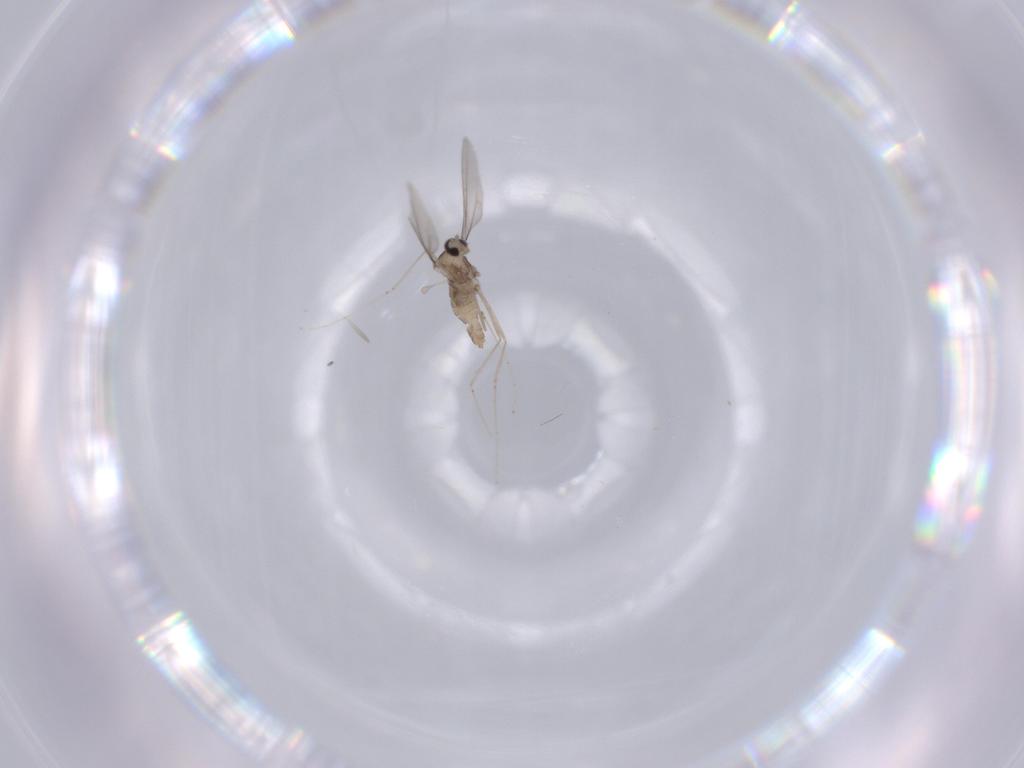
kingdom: Animalia
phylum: Arthropoda
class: Insecta
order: Diptera
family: Cecidomyiidae
